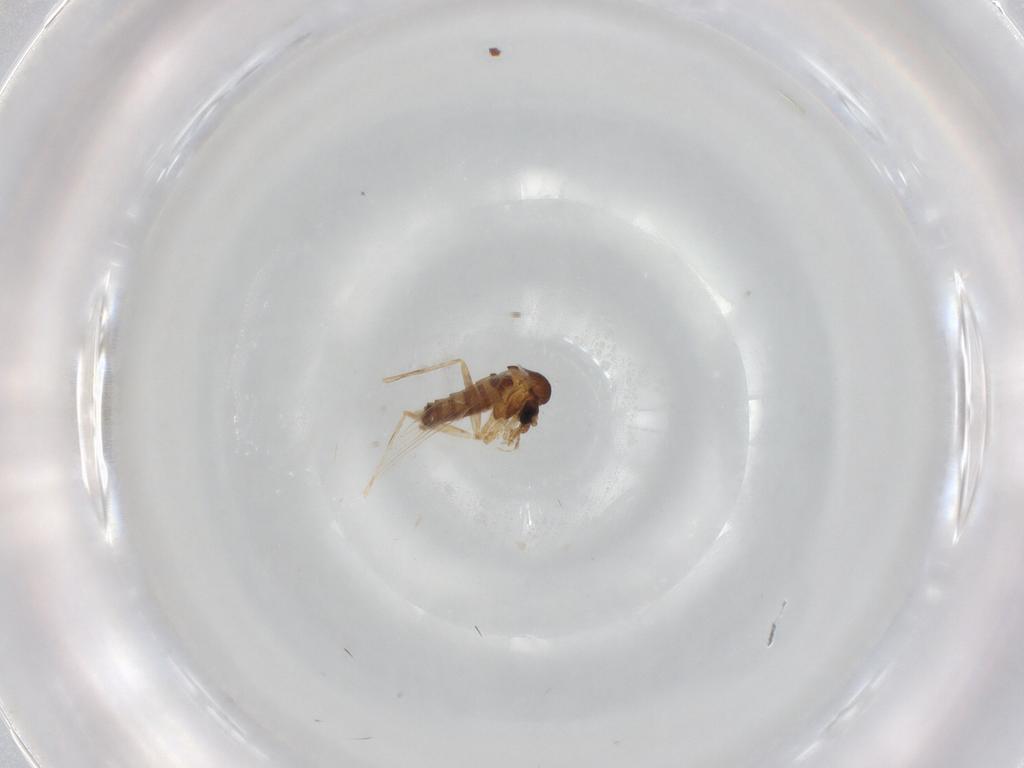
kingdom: Animalia
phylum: Arthropoda
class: Insecta
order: Diptera
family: Psychodidae
